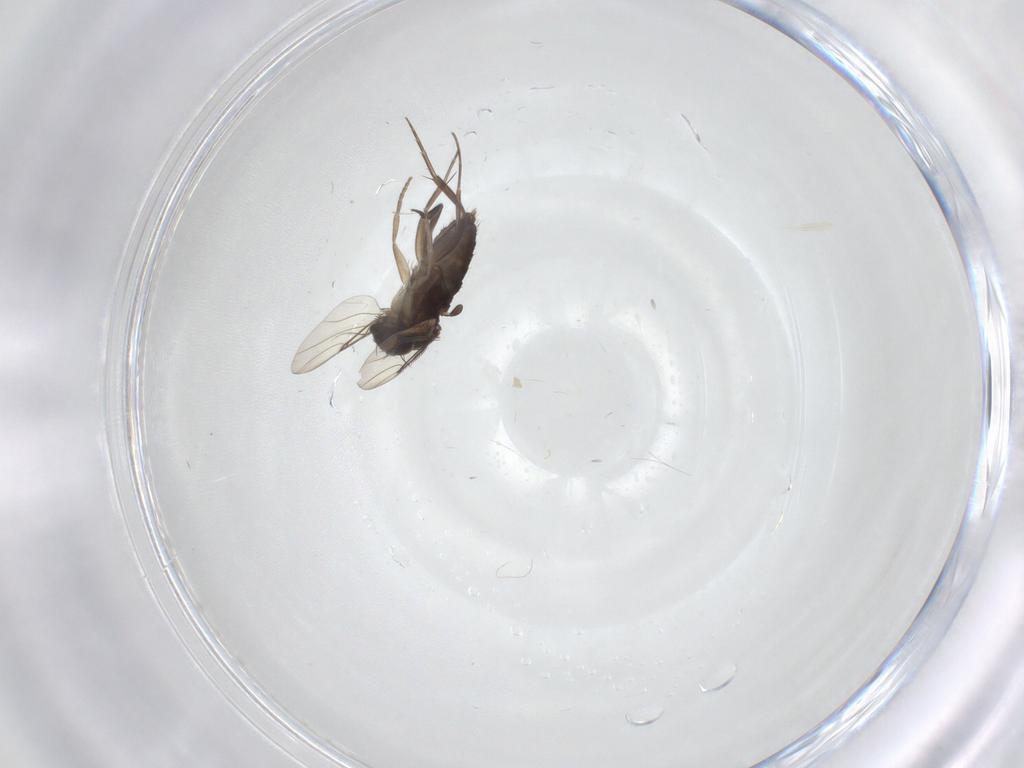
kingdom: Animalia
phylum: Arthropoda
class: Insecta
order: Diptera
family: Phoridae
